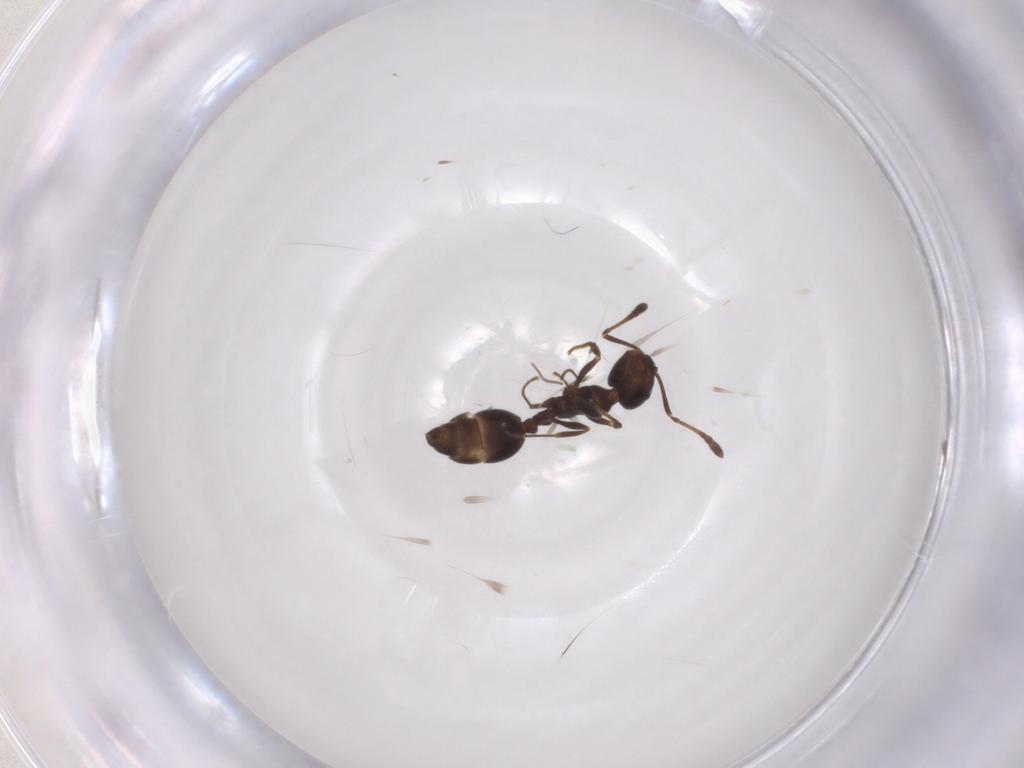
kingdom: Animalia
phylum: Arthropoda
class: Insecta
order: Hymenoptera
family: Formicidae
